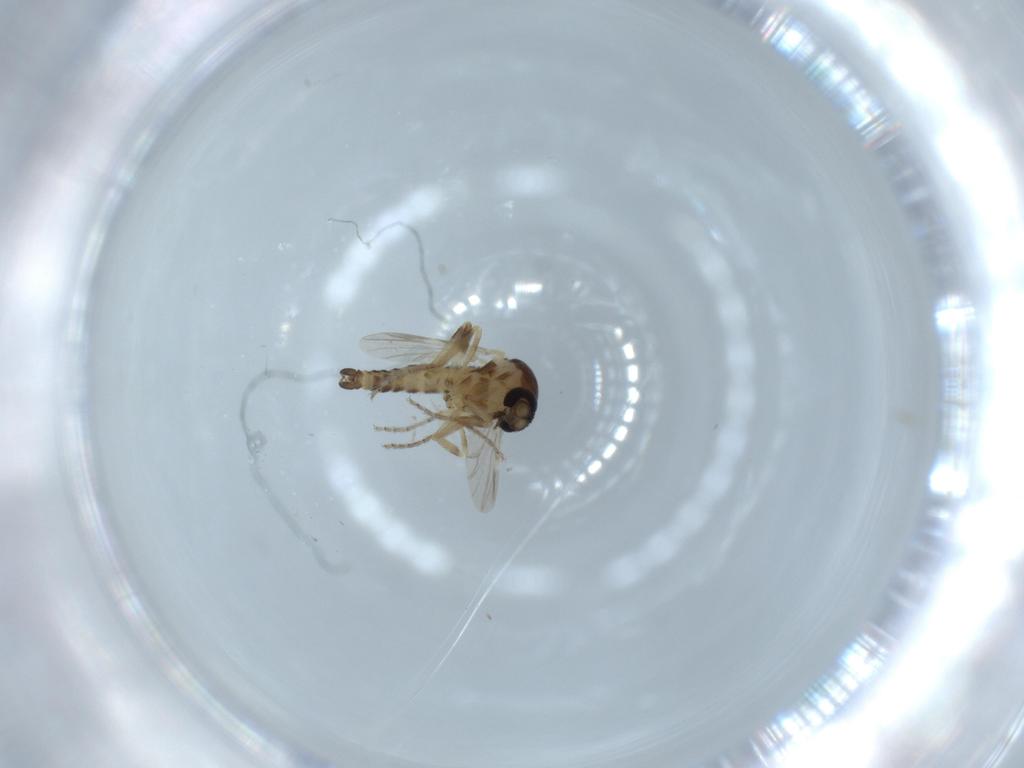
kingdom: Animalia
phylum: Arthropoda
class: Insecta
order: Diptera
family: Ceratopogonidae
